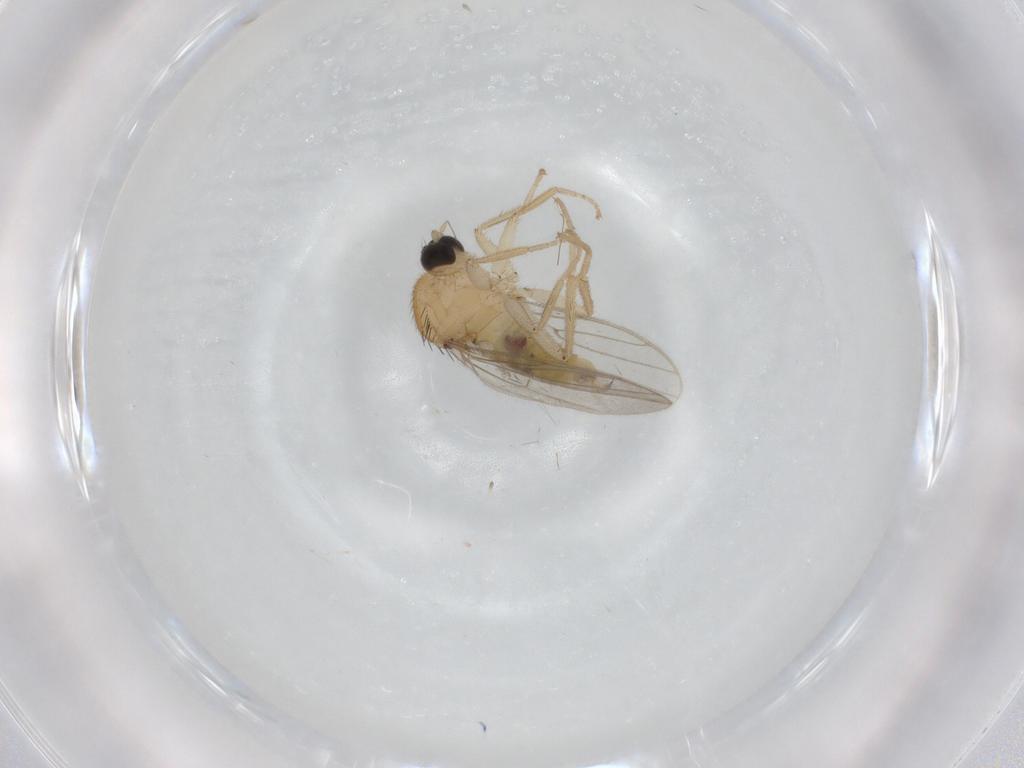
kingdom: Animalia
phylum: Arthropoda
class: Insecta
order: Diptera
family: Hybotidae
